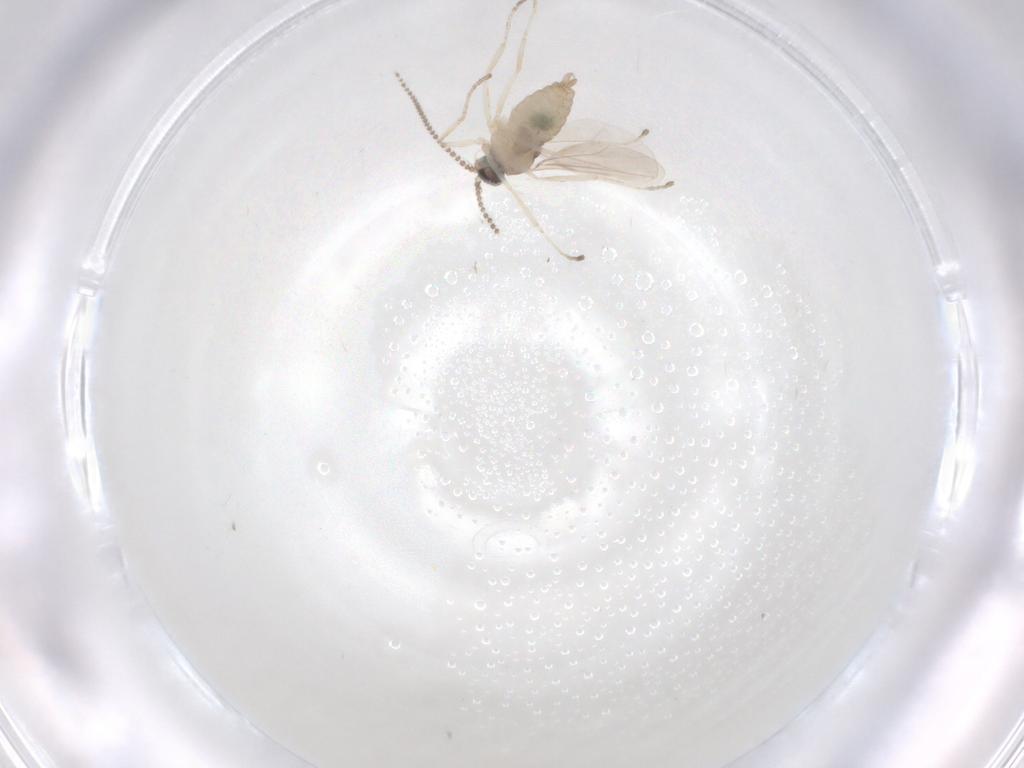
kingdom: Animalia
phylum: Arthropoda
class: Insecta
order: Diptera
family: Cecidomyiidae
